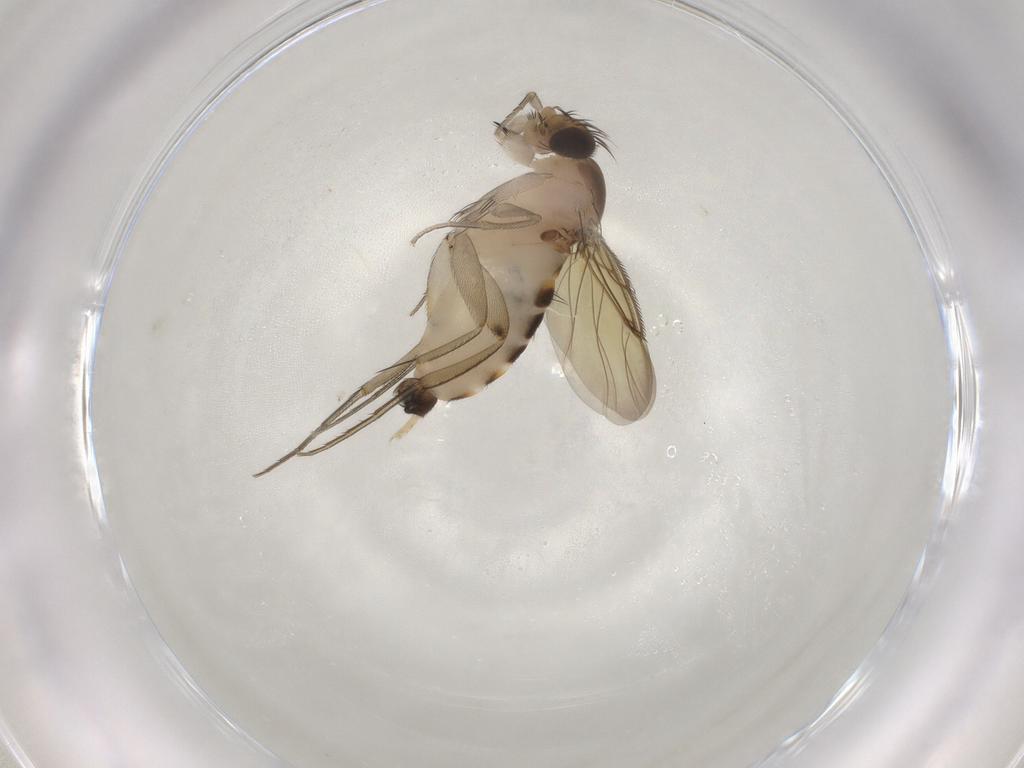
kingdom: Animalia
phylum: Arthropoda
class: Insecta
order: Diptera
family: Phoridae
